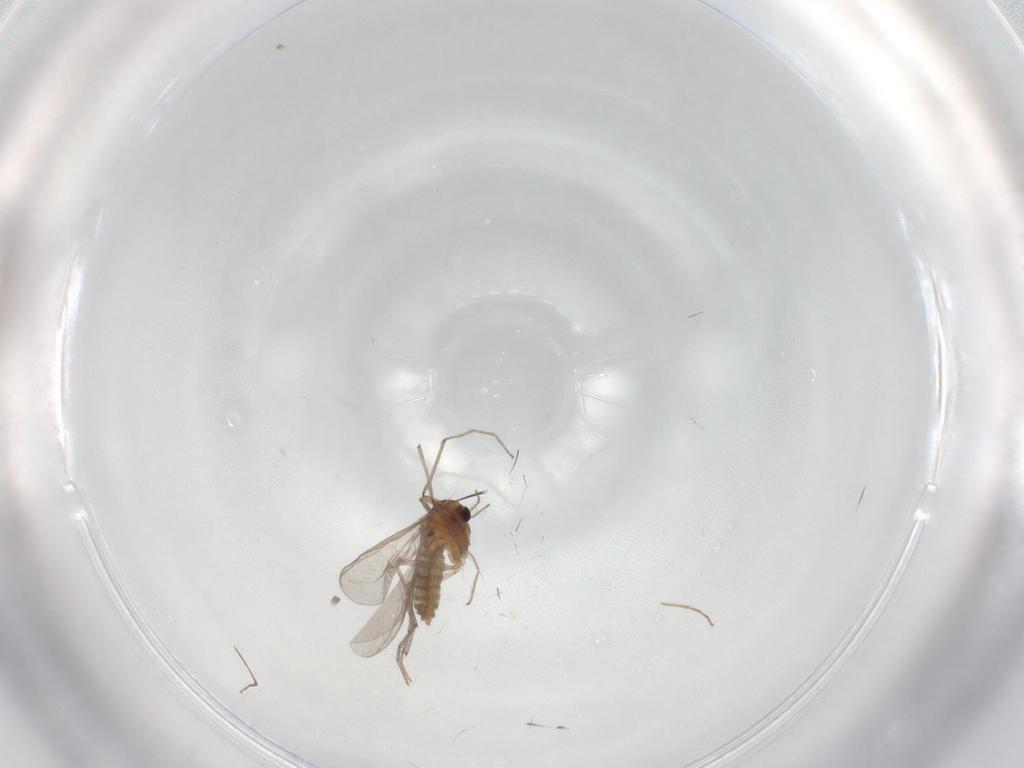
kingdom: Animalia
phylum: Arthropoda
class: Insecta
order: Diptera
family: Chironomidae
